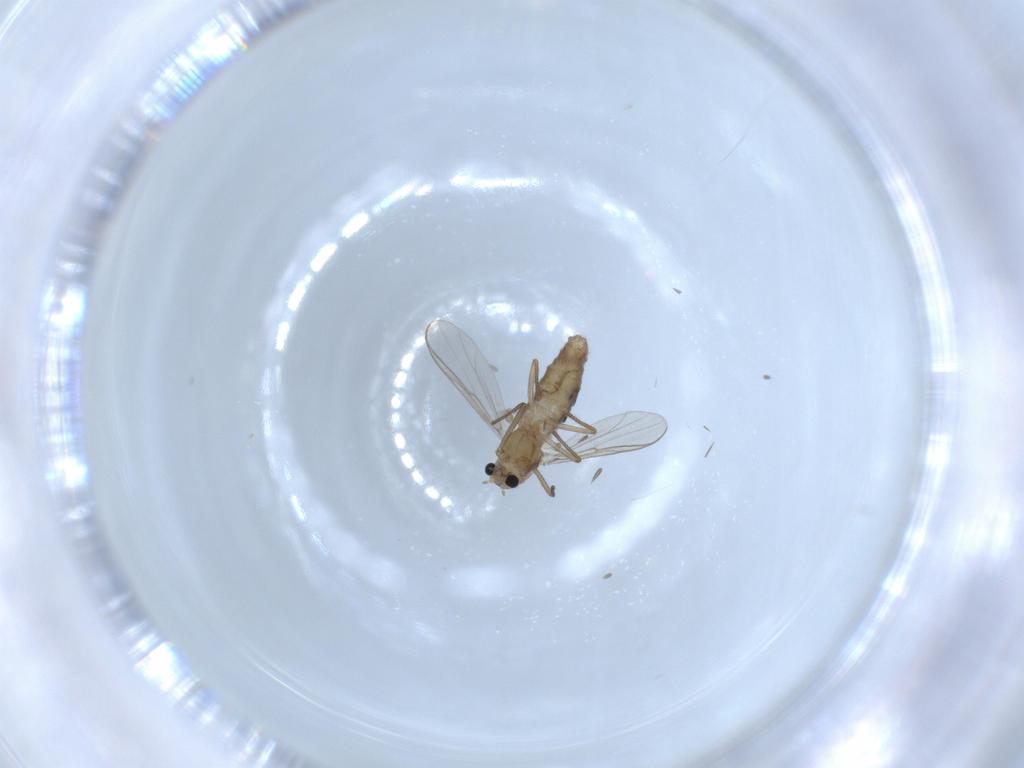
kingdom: Animalia
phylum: Arthropoda
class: Insecta
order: Diptera
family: Chironomidae
